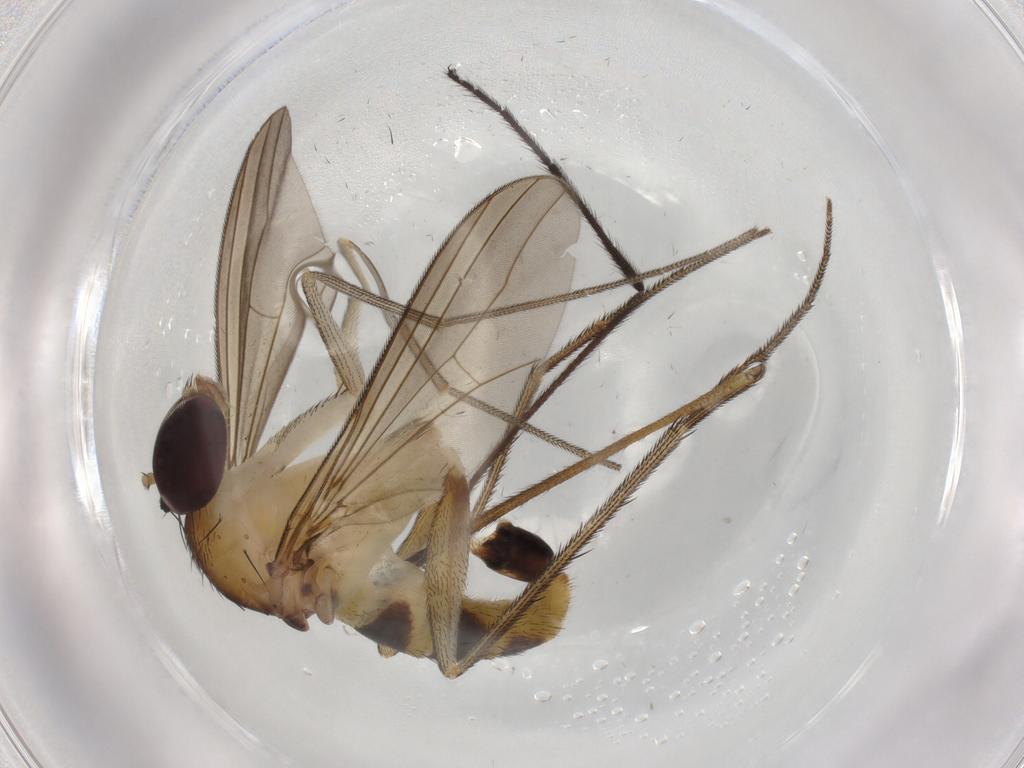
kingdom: Animalia
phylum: Arthropoda
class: Insecta
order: Diptera
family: Dolichopodidae
